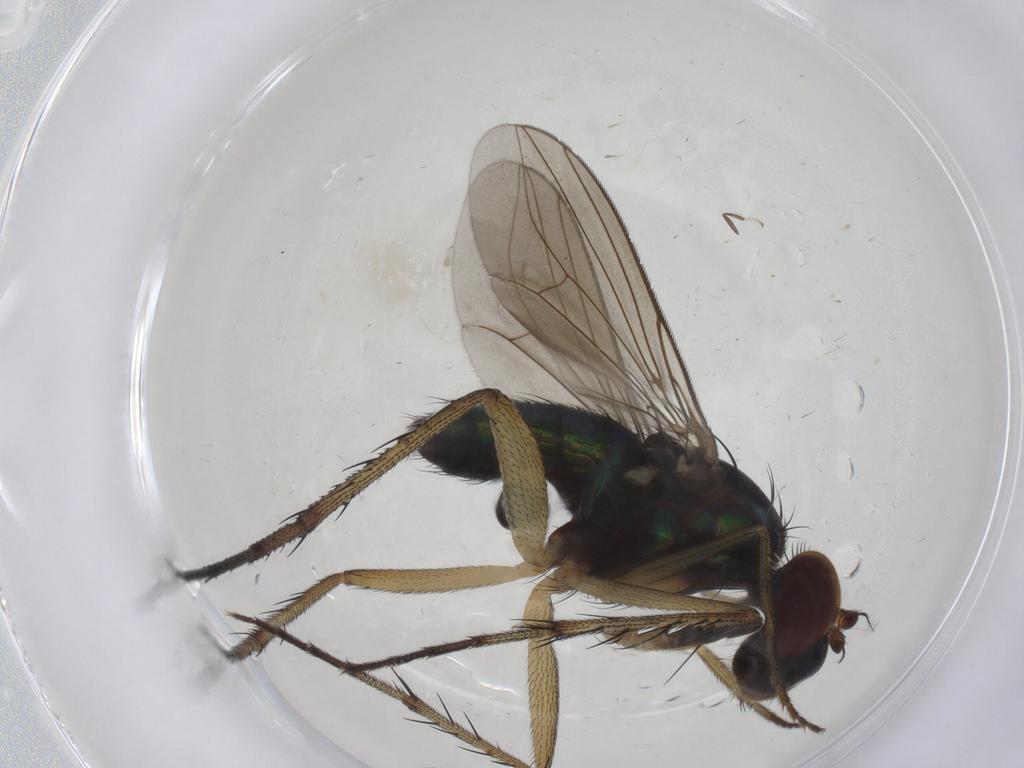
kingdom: Animalia
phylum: Arthropoda
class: Insecta
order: Diptera
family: Dolichopodidae
